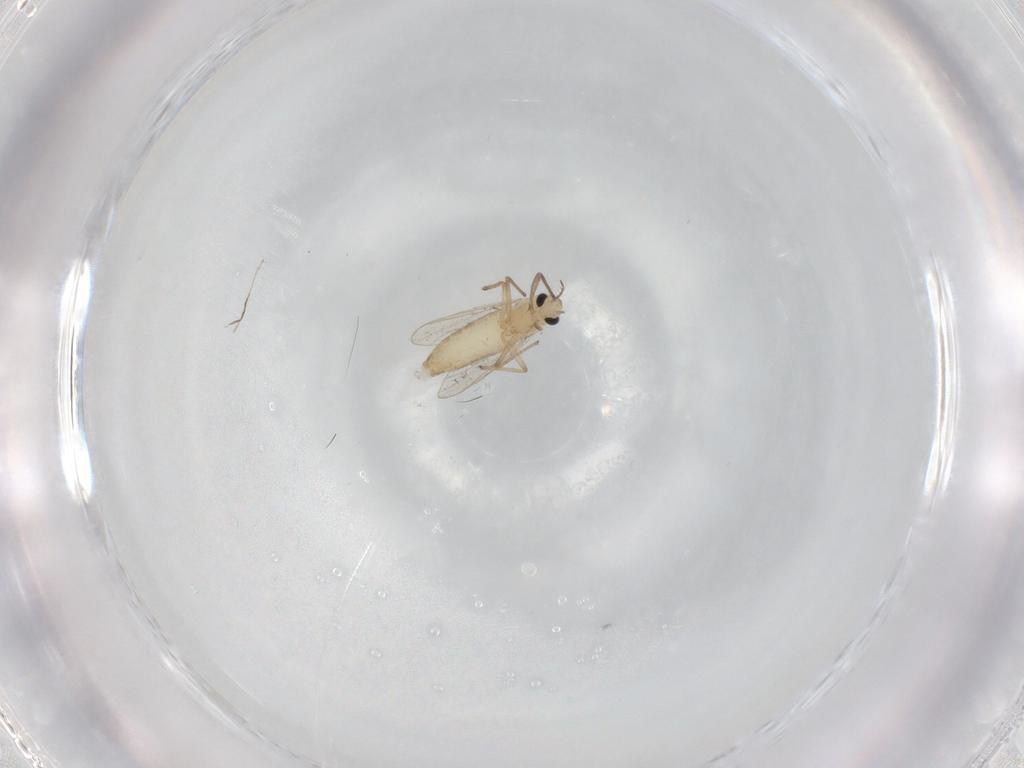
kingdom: Animalia
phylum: Arthropoda
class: Insecta
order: Diptera
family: Chironomidae
